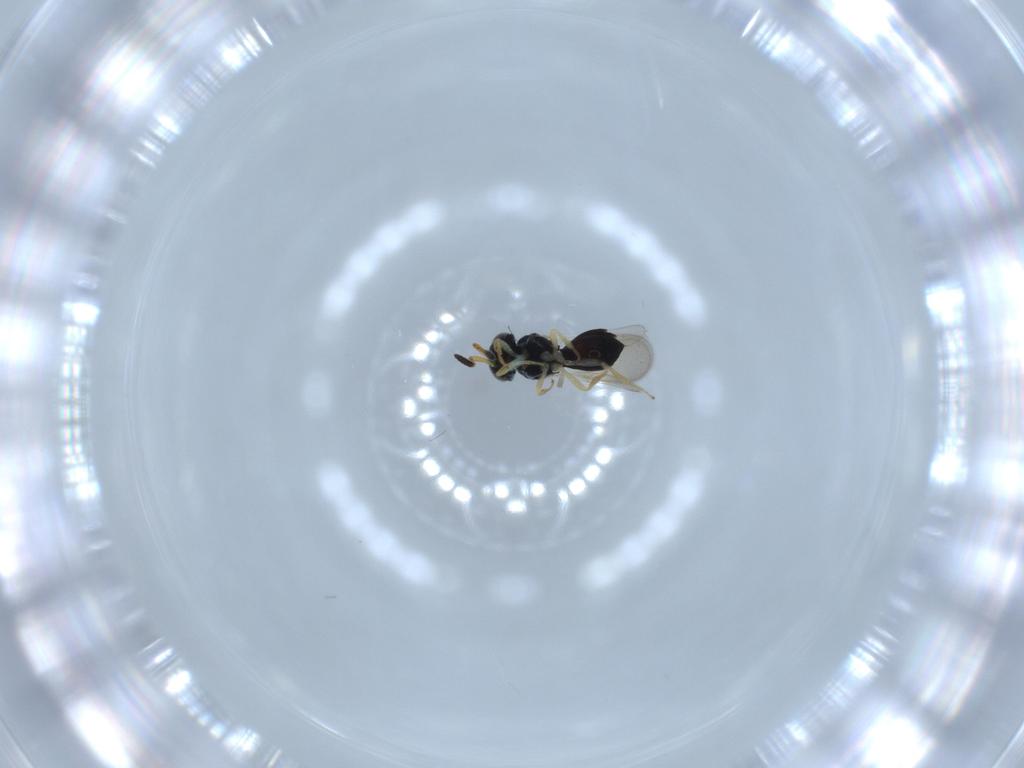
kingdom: Animalia
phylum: Arthropoda
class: Insecta
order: Hymenoptera
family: Scelionidae
